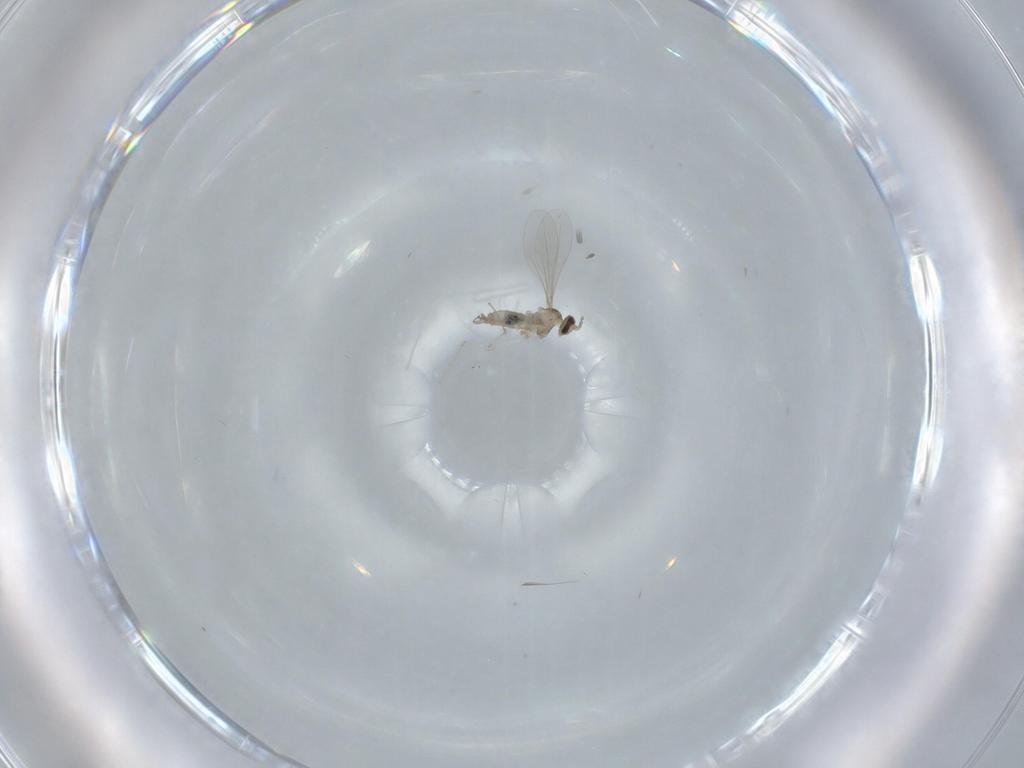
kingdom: Animalia
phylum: Arthropoda
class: Insecta
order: Diptera
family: Cecidomyiidae
